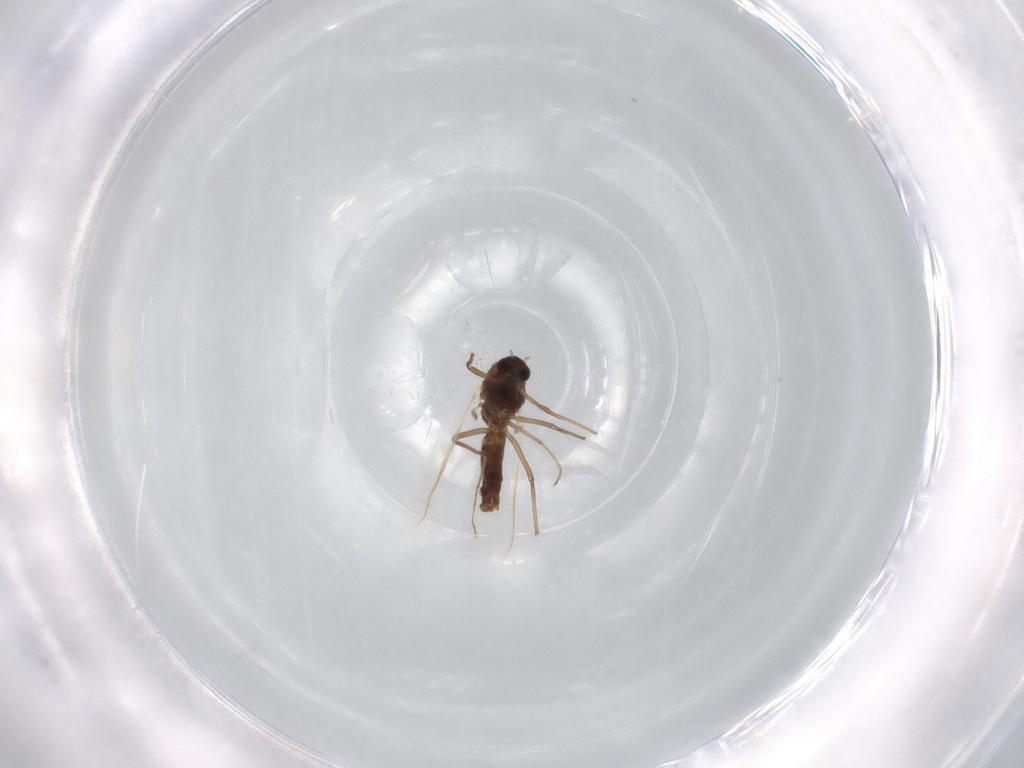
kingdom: Animalia
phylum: Arthropoda
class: Insecta
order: Diptera
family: Chironomidae
